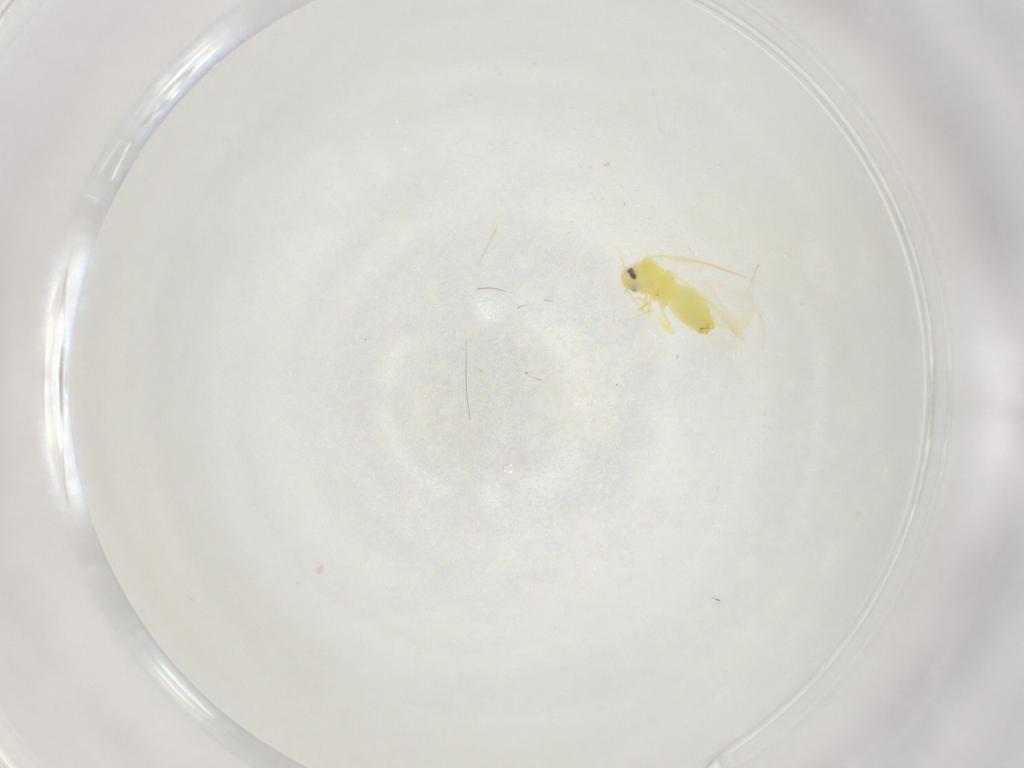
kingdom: Animalia
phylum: Arthropoda
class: Insecta
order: Hemiptera
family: Aleyrodidae
